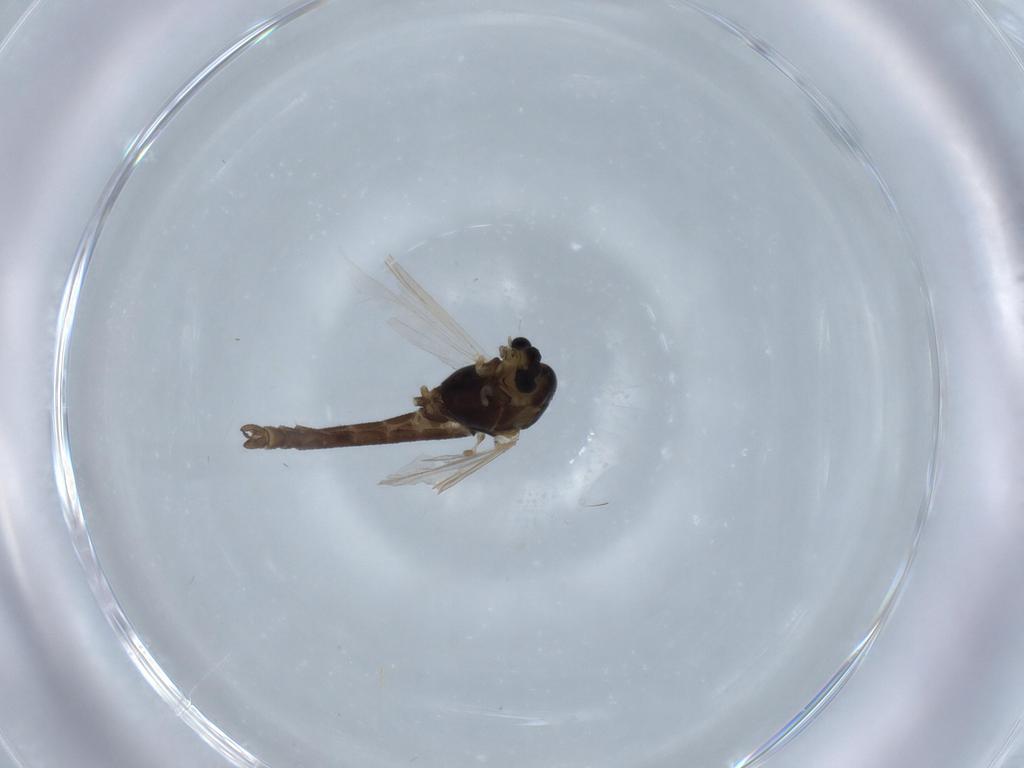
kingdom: Animalia
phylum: Arthropoda
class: Insecta
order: Diptera
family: Chironomidae
